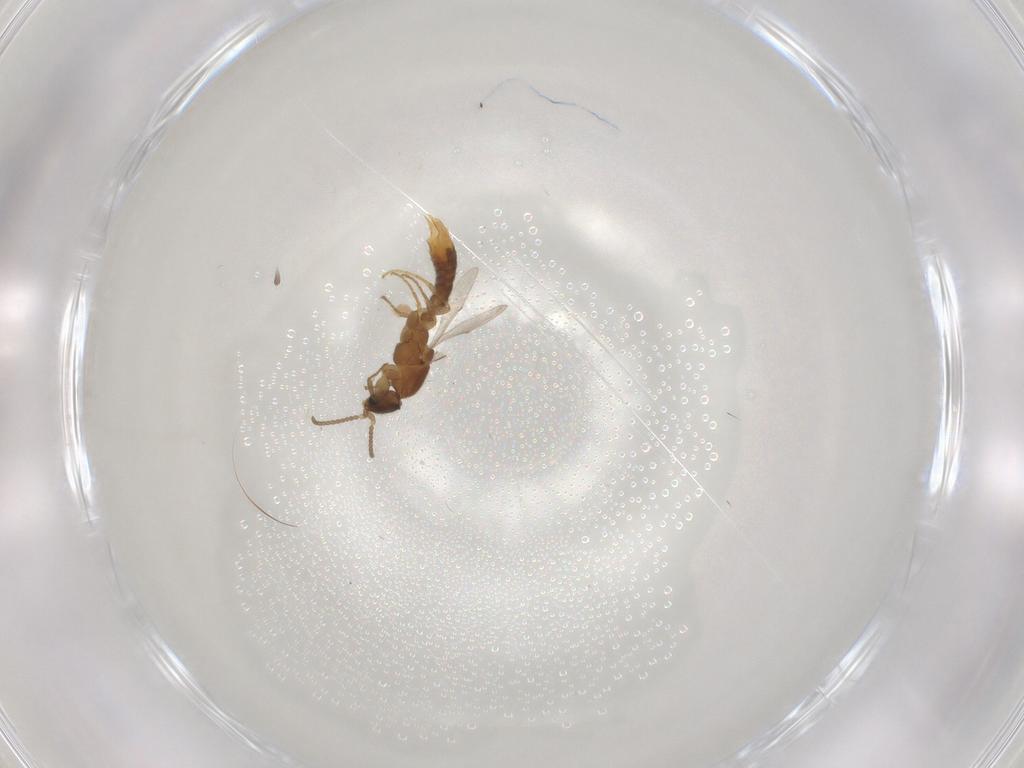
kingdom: Animalia
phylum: Arthropoda
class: Insecta
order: Hymenoptera
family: Formicidae
